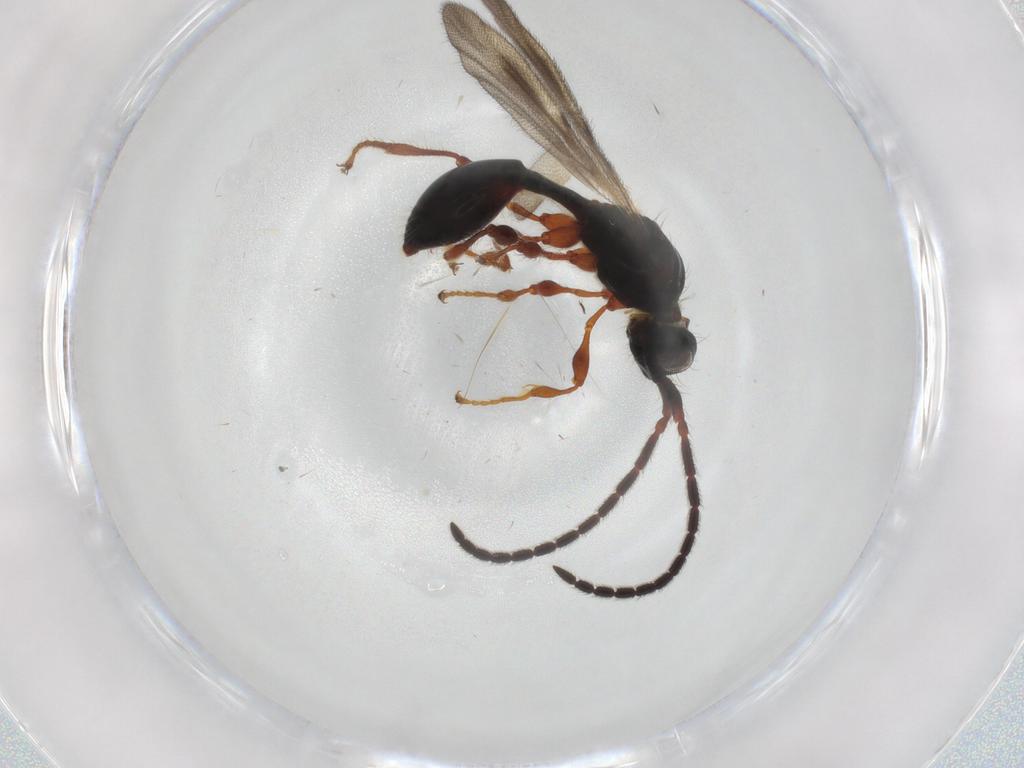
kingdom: Animalia
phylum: Arthropoda
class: Insecta
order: Hymenoptera
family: Diapriidae
